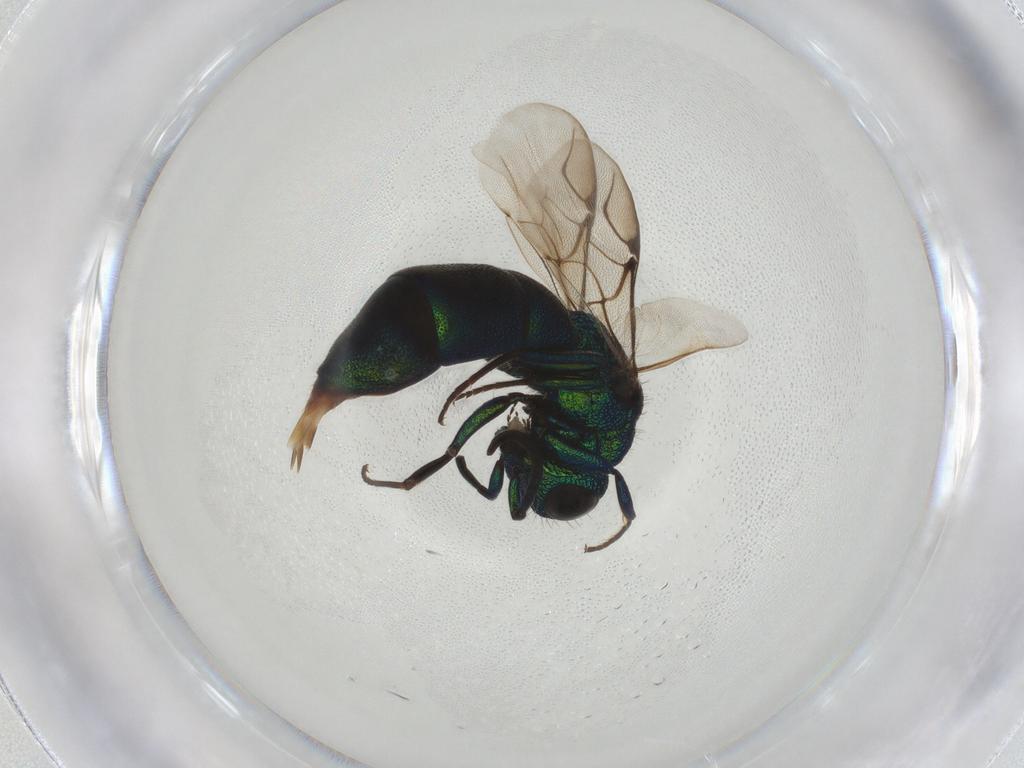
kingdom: Animalia
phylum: Arthropoda
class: Insecta
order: Hymenoptera
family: Chrysididae
